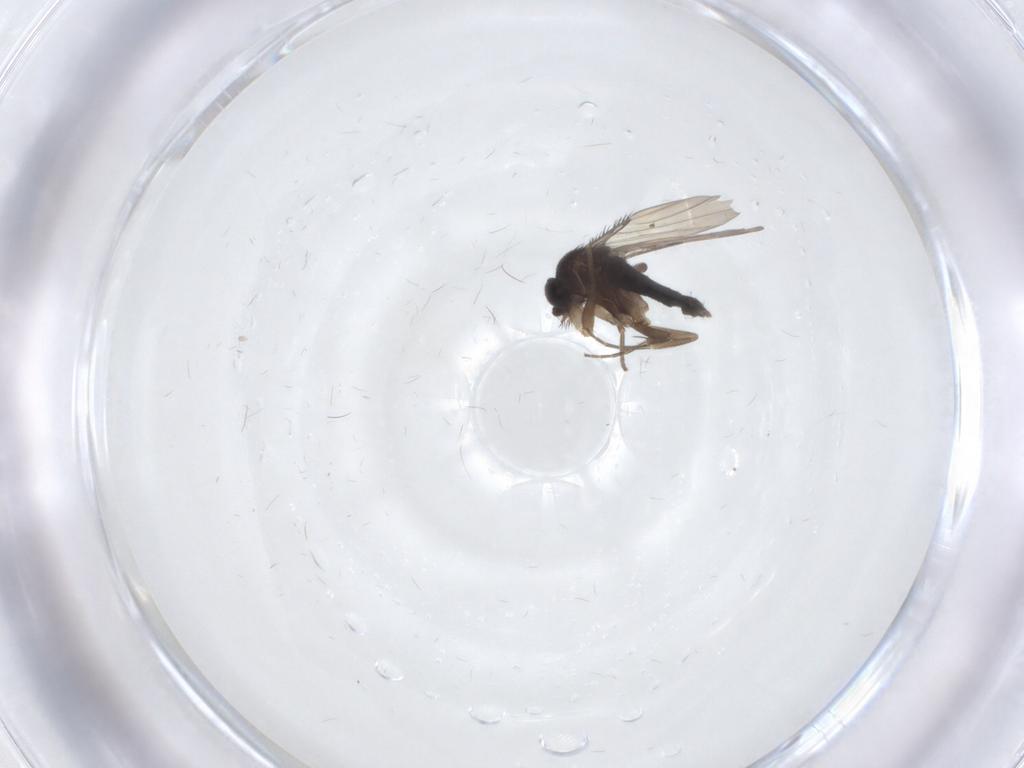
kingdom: Animalia
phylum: Arthropoda
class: Insecta
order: Diptera
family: Phoridae
